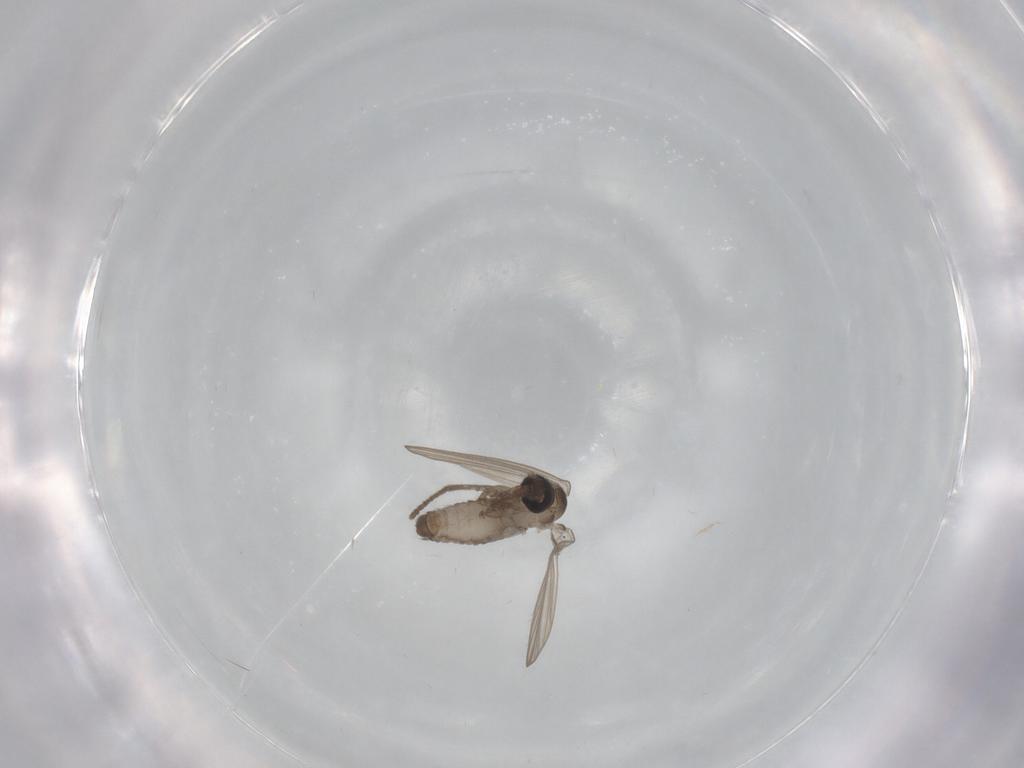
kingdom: Animalia
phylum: Arthropoda
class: Insecta
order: Diptera
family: Psychodidae
